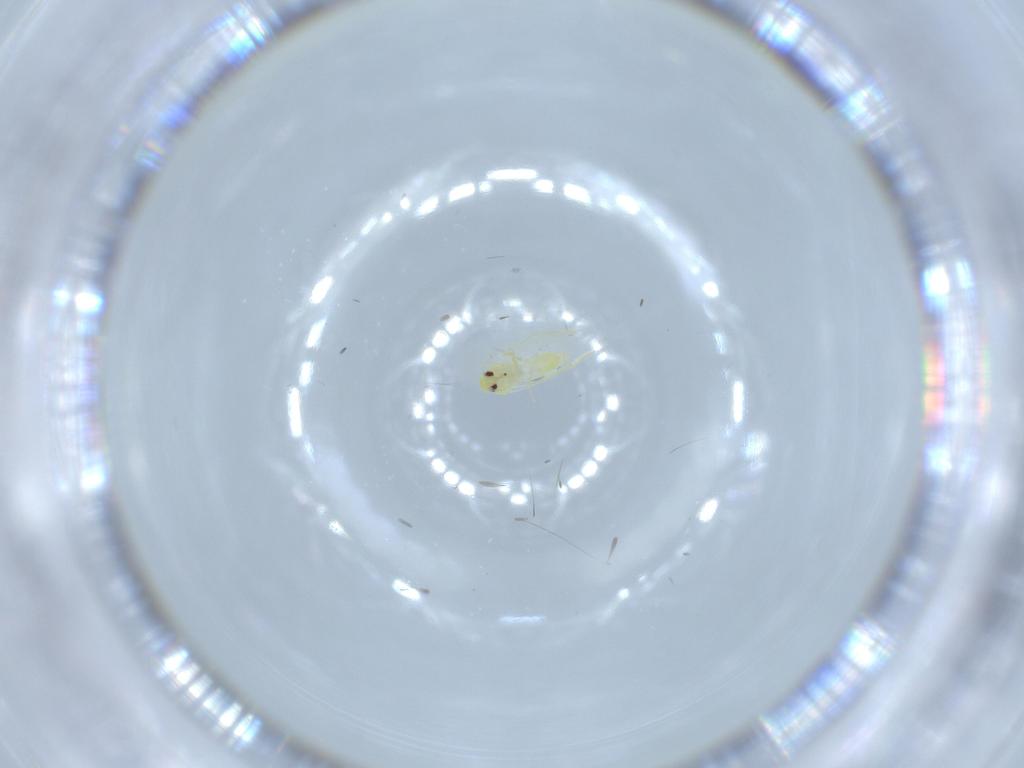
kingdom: Animalia
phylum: Arthropoda
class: Insecta
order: Hemiptera
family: Aleyrodidae
